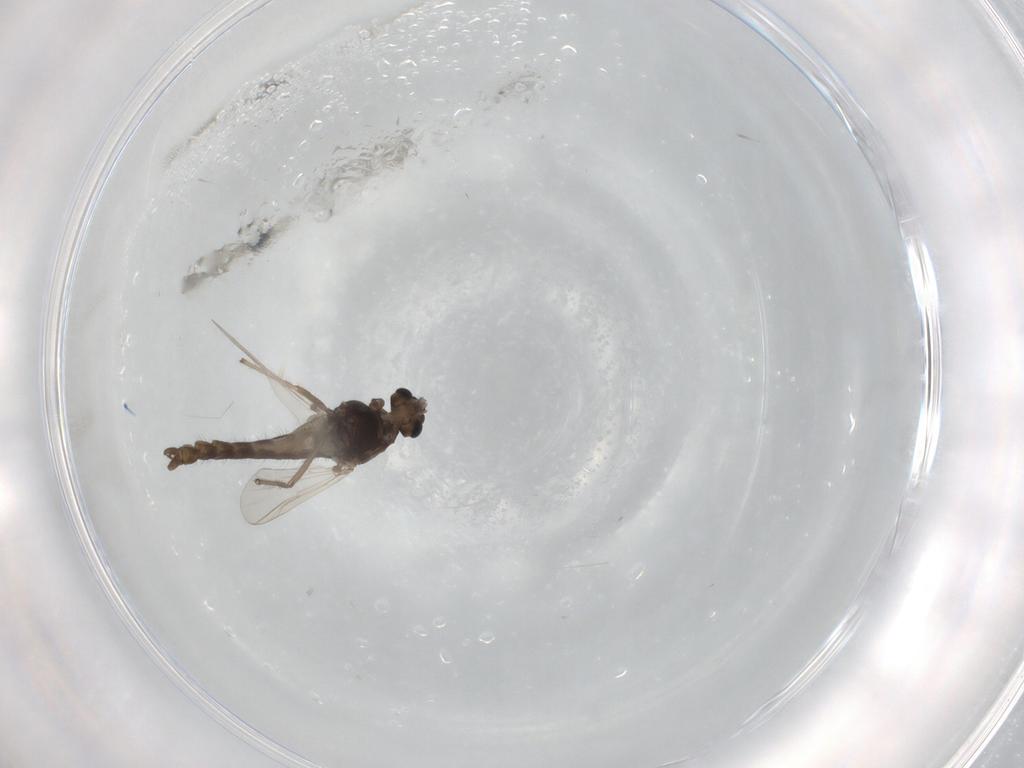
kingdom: Animalia
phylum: Arthropoda
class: Insecta
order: Diptera
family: Chironomidae
